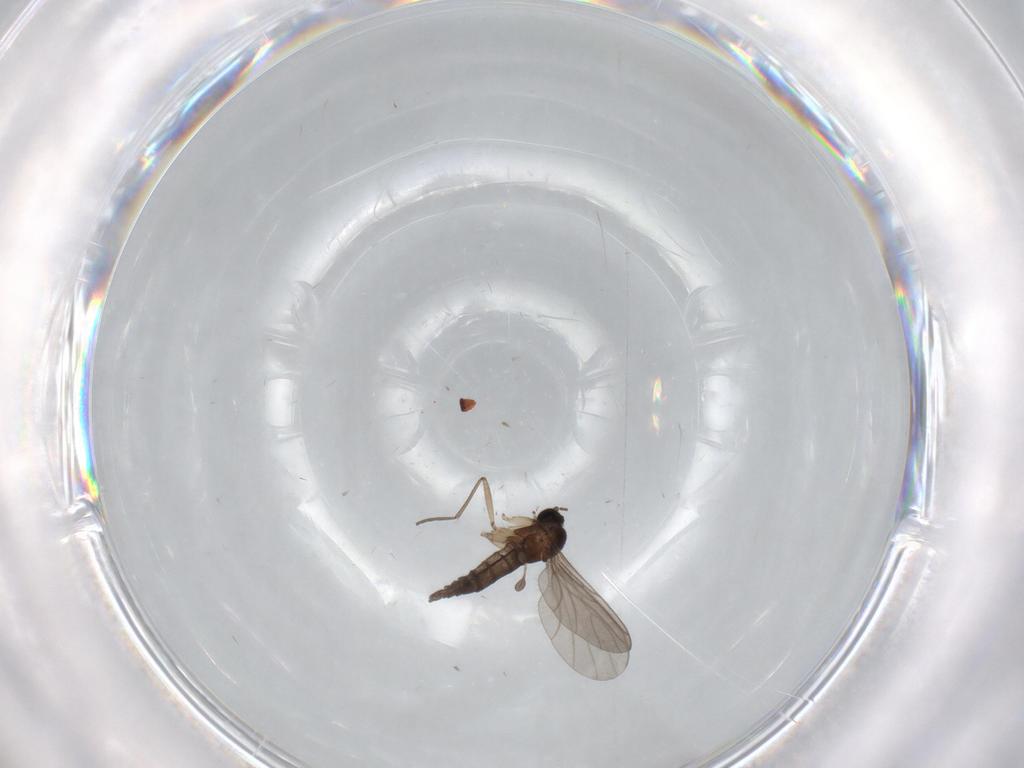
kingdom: Animalia
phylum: Arthropoda
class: Insecta
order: Diptera
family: Sciaridae
